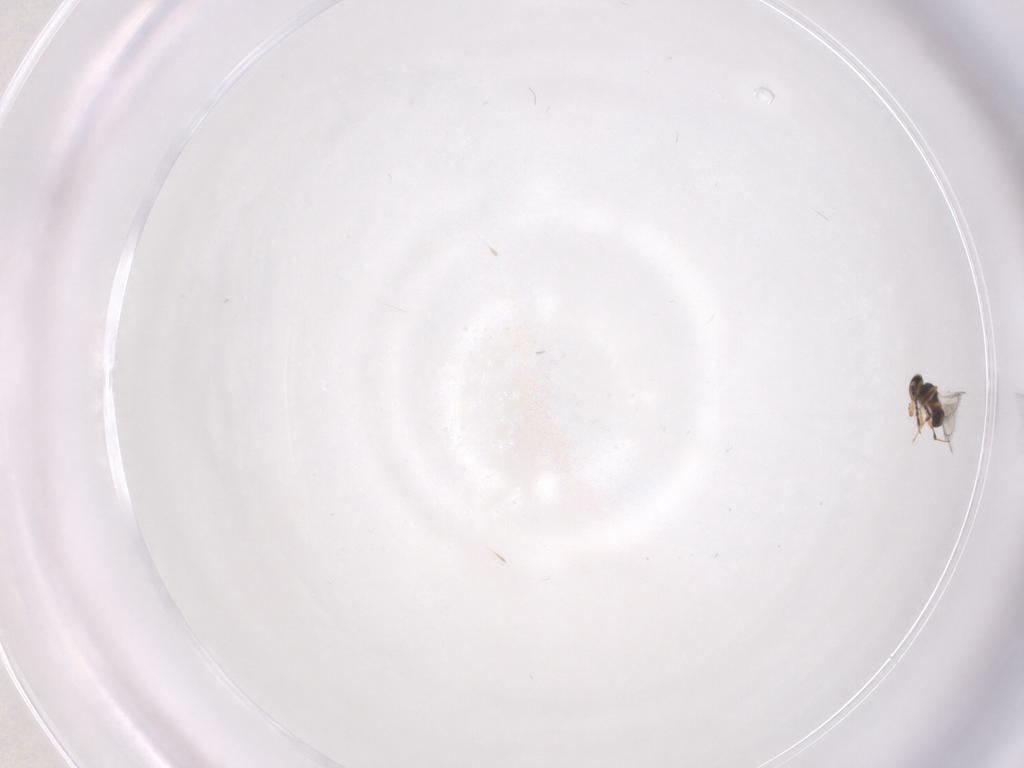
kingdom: Animalia
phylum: Arthropoda
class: Insecta
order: Hymenoptera
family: Platygastridae
